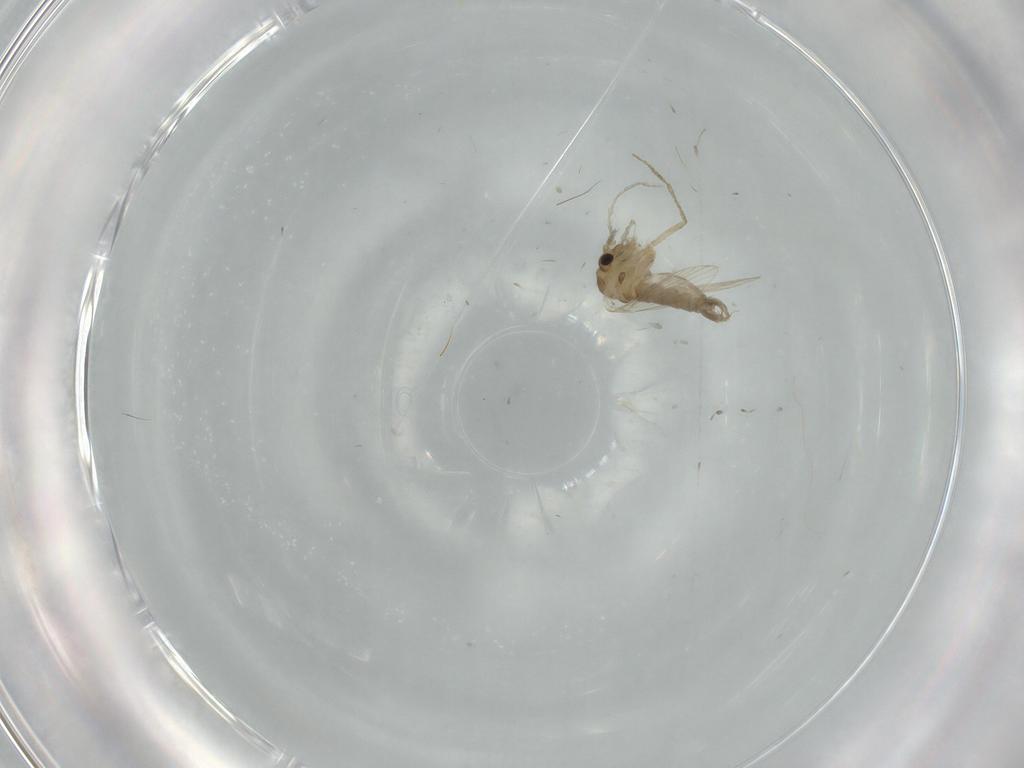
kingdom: Animalia
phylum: Arthropoda
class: Insecta
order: Diptera
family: Psychodidae
